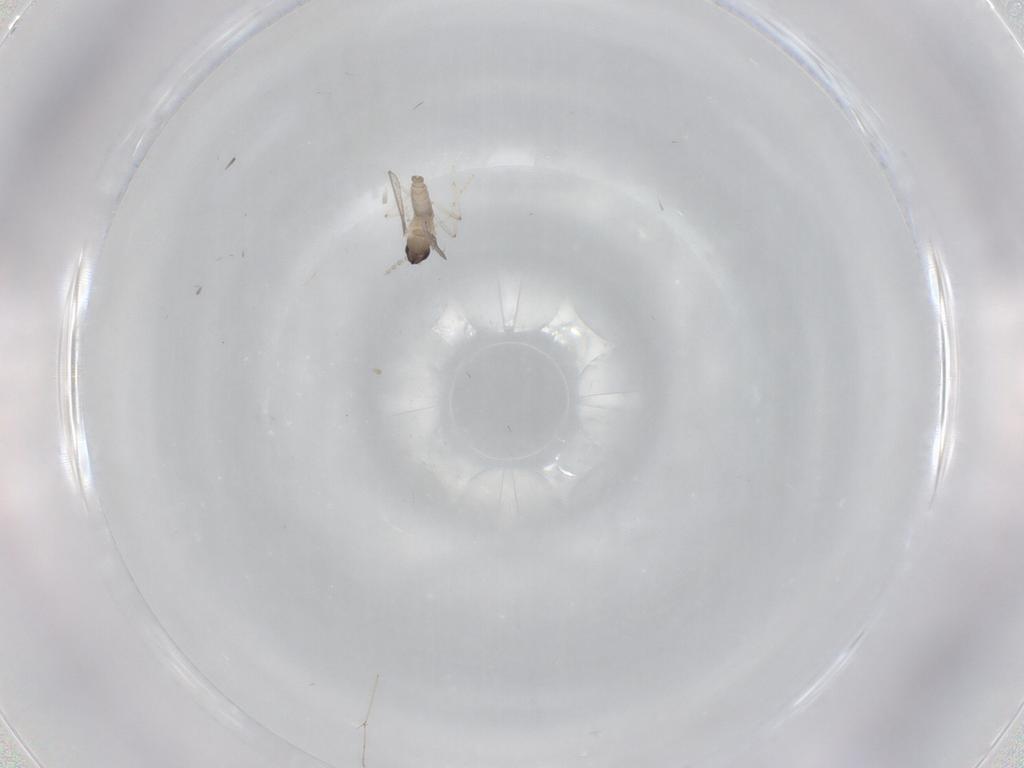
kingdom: Animalia
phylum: Arthropoda
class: Insecta
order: Diptera
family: Cecidomyiidae
